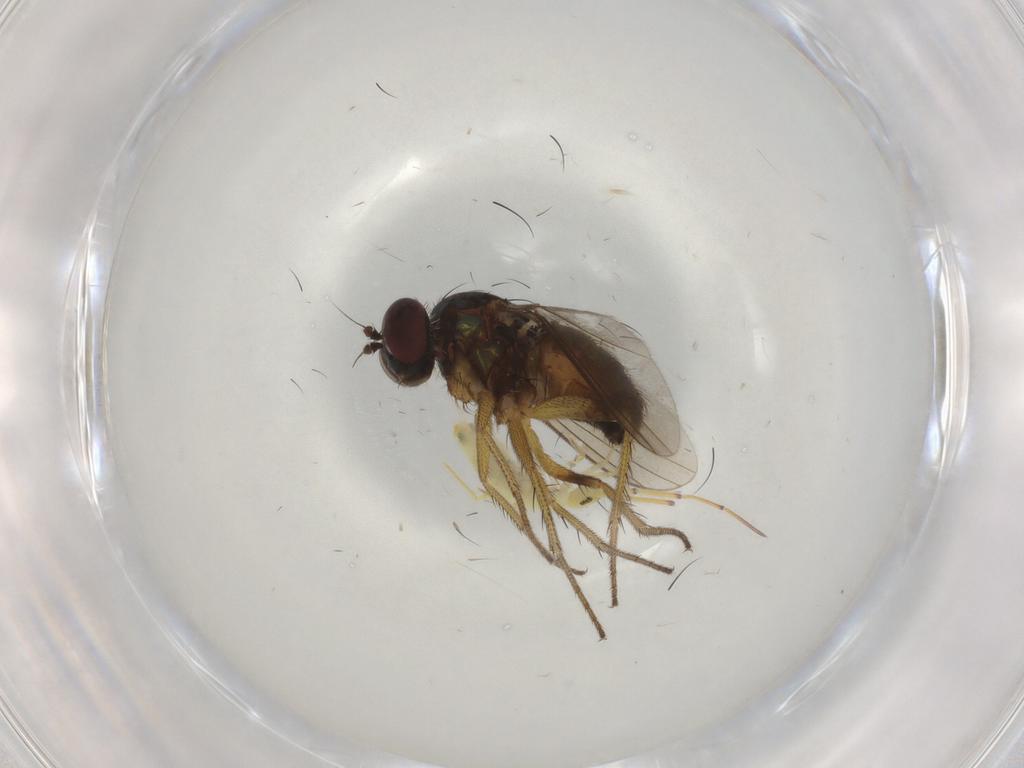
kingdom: Animalia
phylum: Arthropoda
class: Insecta
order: Diptera
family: Dolichopodidae
